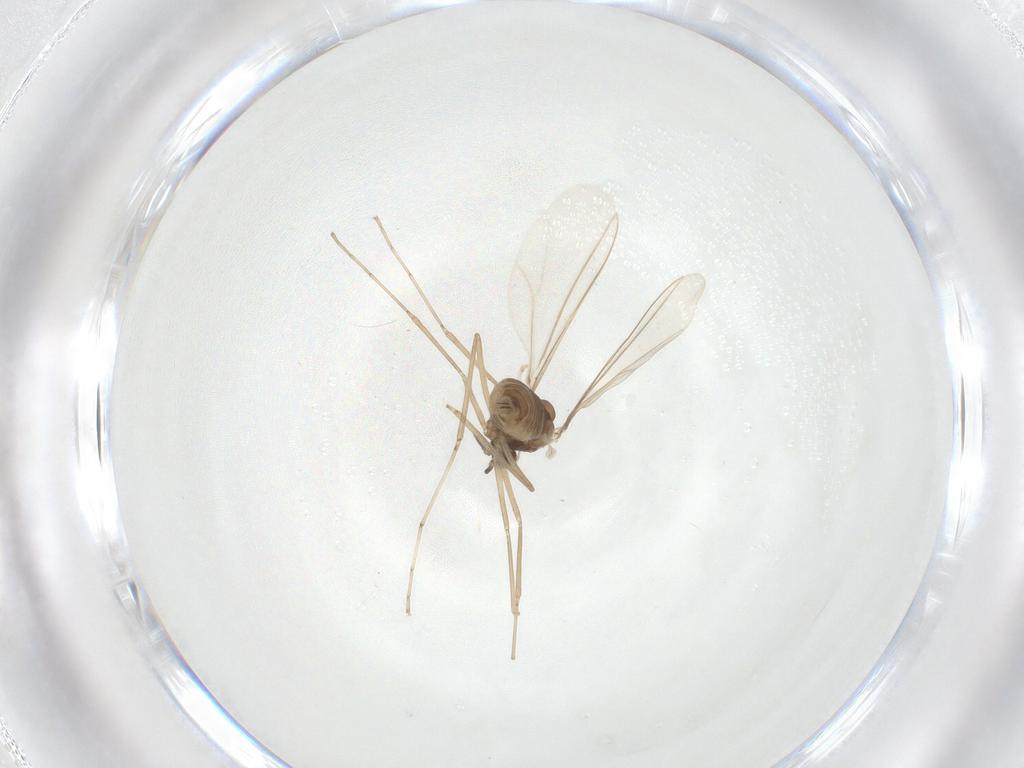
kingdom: Animalia
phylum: Arthropoda
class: Insecta
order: Diptera
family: Cecidomyiidae
